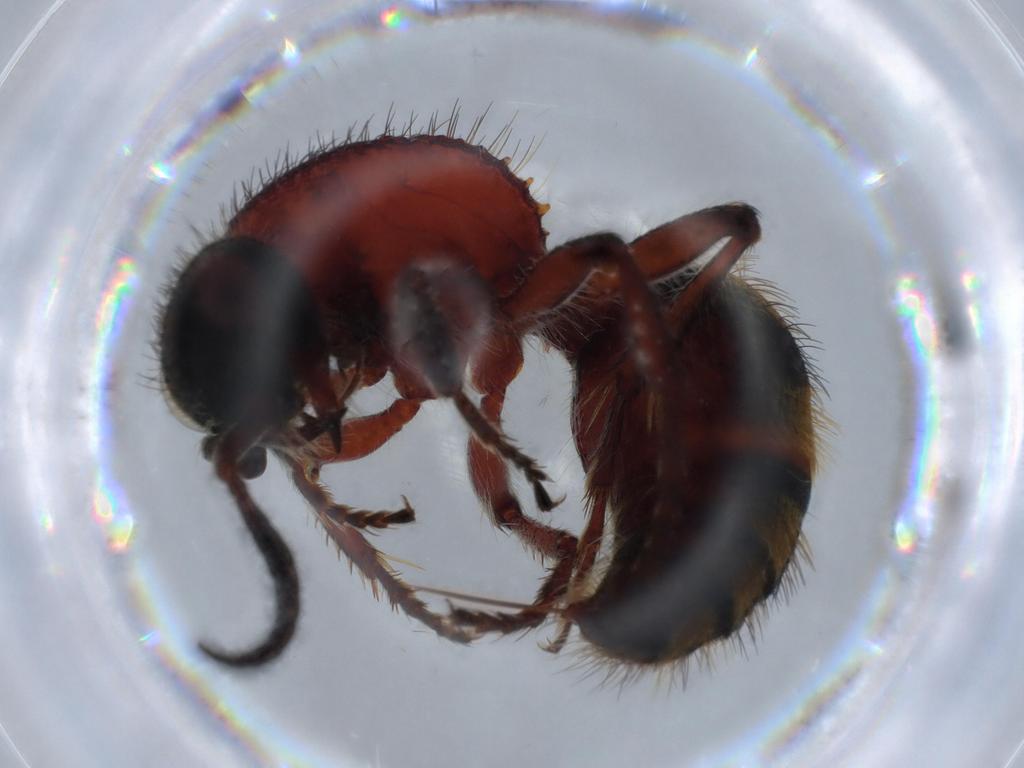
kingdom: Animalia
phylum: Arthropoda
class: Insecta
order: Hymenoptera
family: Mutillidae
